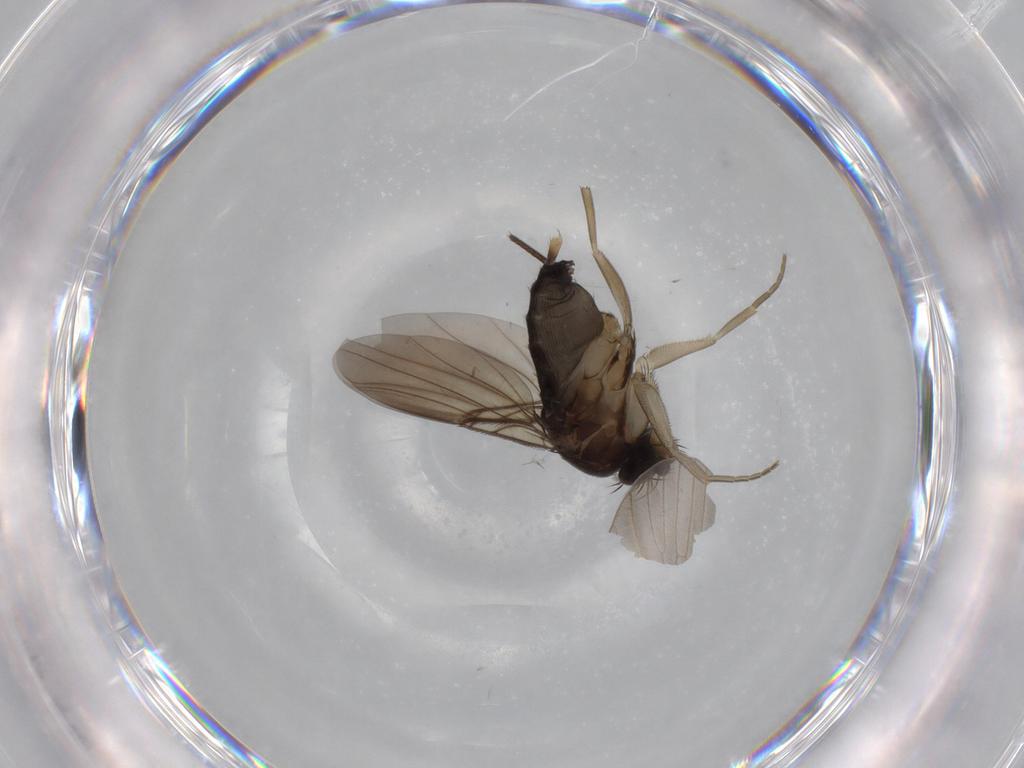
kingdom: Animalia
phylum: Arthropoda
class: Insecta
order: Diptera
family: Phoridae
